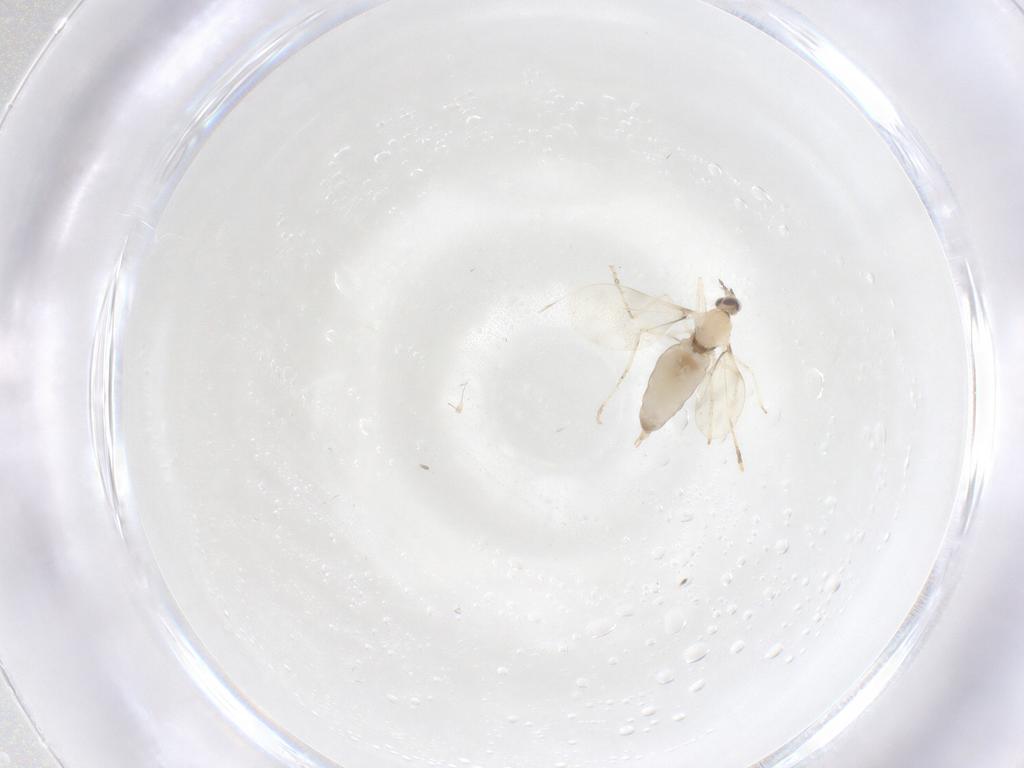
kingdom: Animalia
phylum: Arthropoda
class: Insecta
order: Diptera
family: Cecidomyiidae
